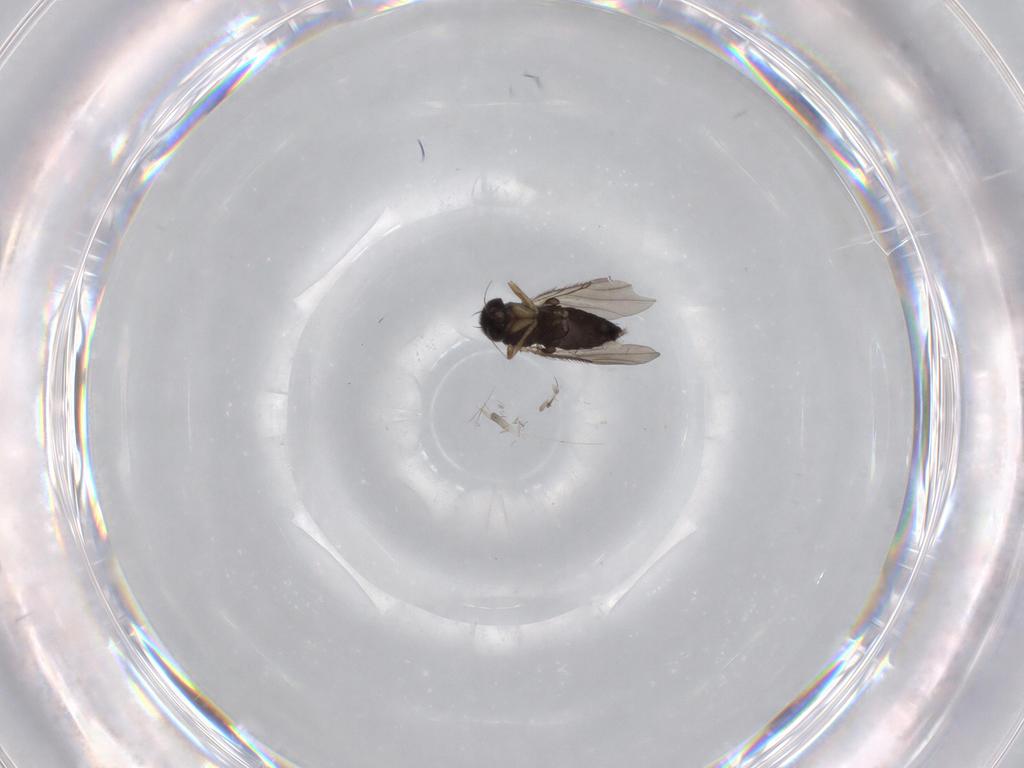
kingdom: Animalia
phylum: Arthropoda
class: Insecta
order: Diptera
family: Phoridae
